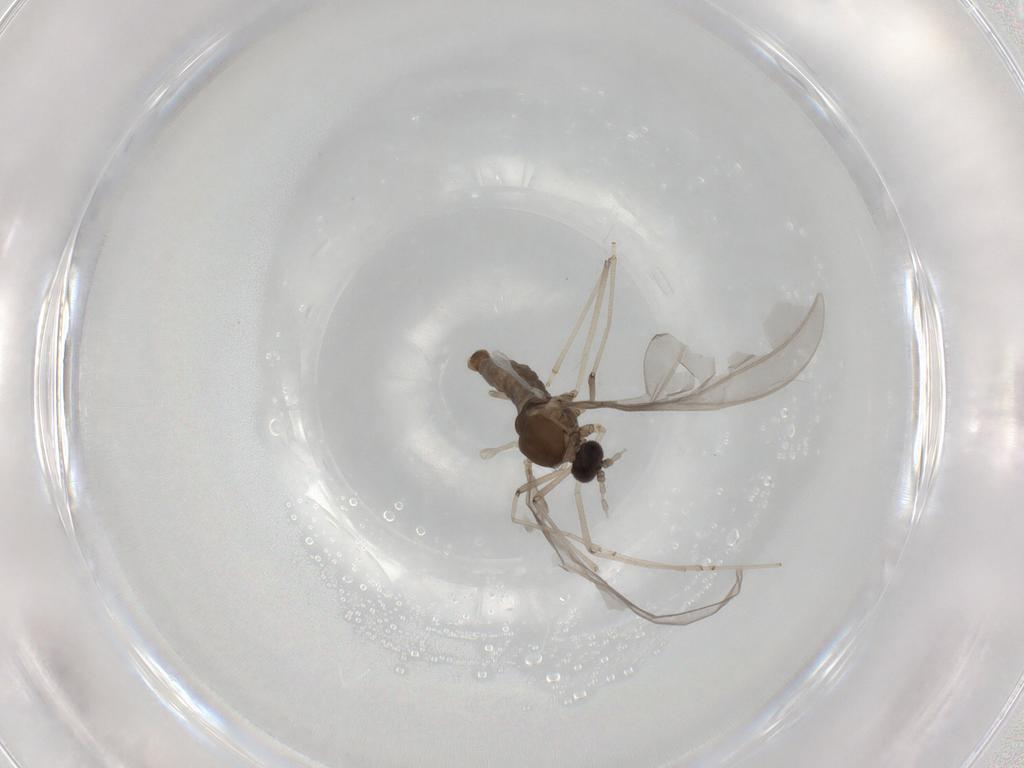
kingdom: Animalia
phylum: Arthropoda
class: Insecta
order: Diptera
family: Cecidomyiidae
